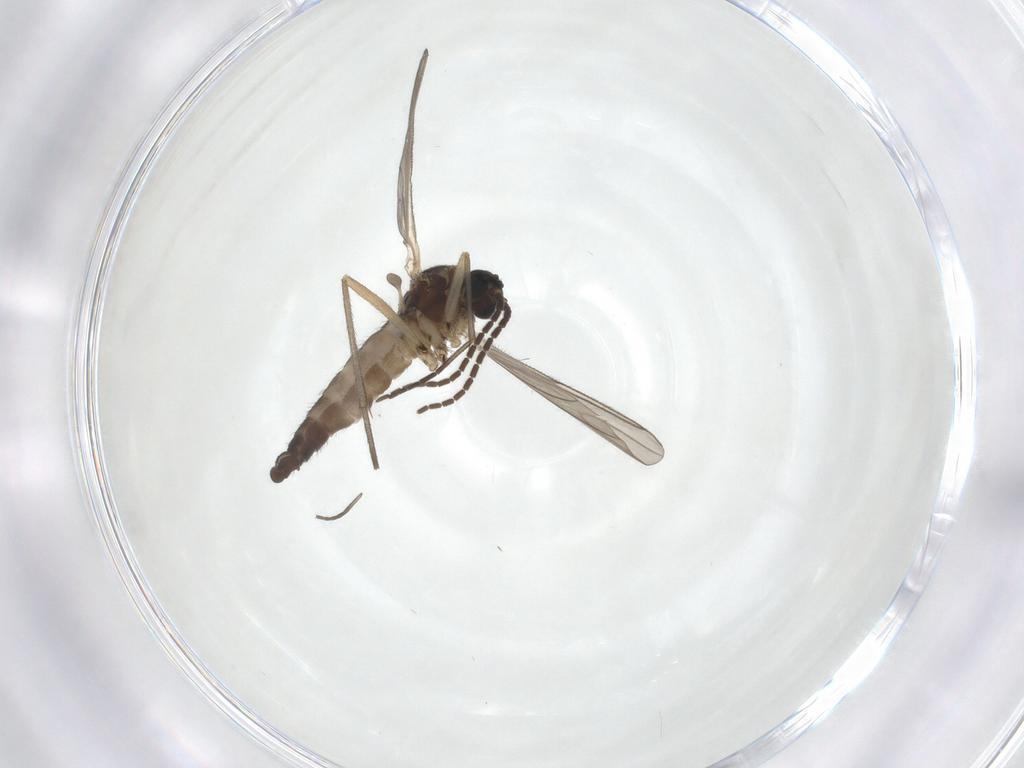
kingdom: Animalia
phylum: Arthropoda
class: Insecta
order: Diptera
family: Sciaridae
